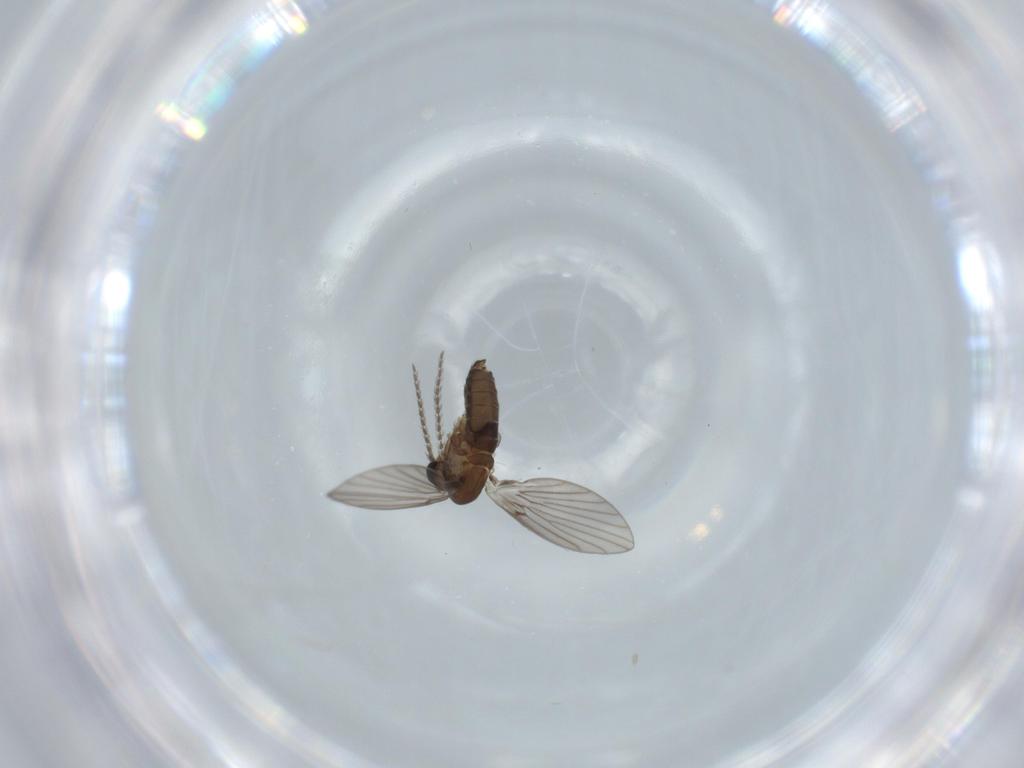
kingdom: Animalia
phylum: Arthropoda
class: Insecta
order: Diptera
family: Psychodidae
